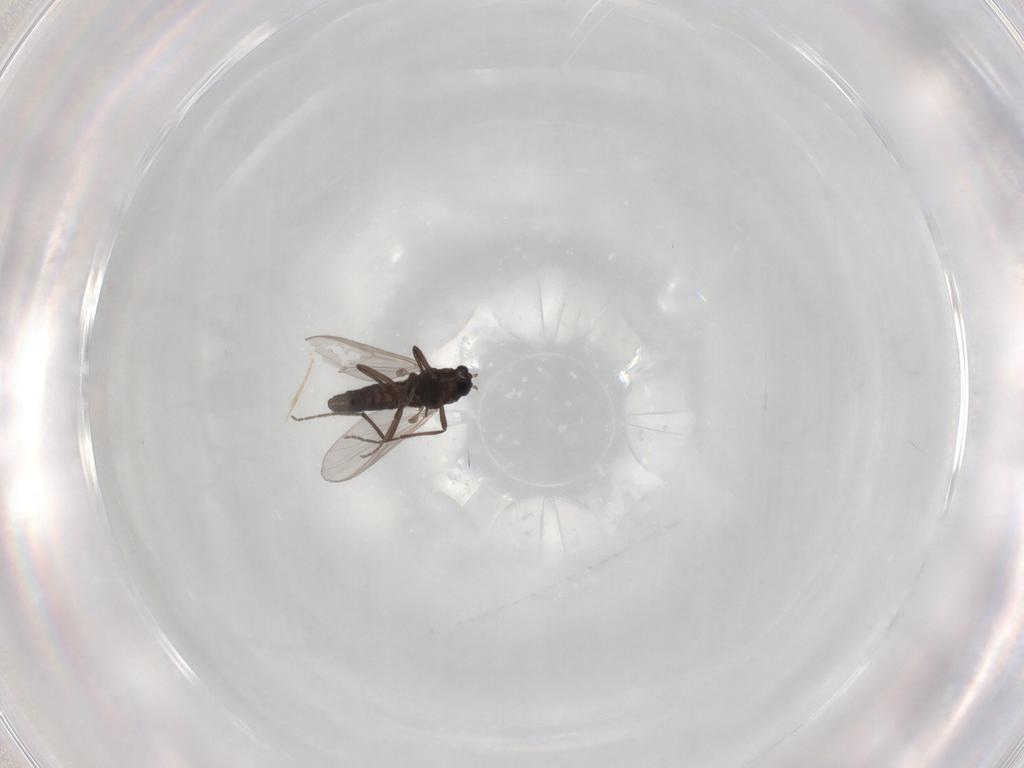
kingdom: Animalia
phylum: Arthropoda
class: Insecta
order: Diptera
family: Chironomidae
